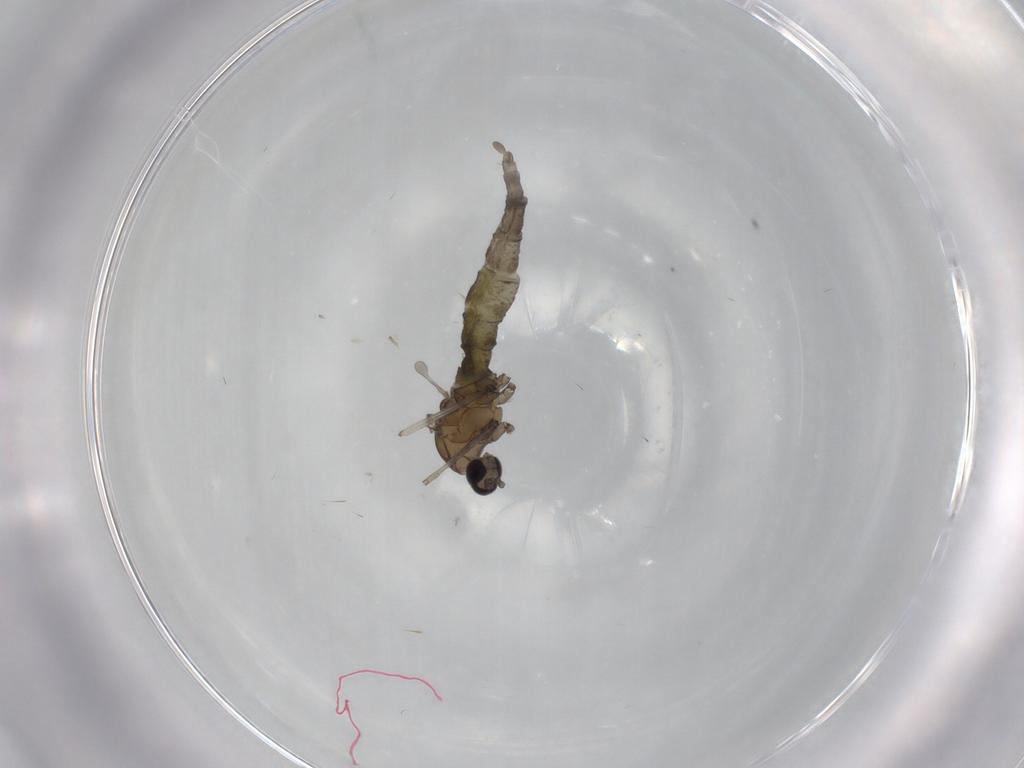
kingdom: Animalia
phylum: Arthropoda
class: Insecta
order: Diptera
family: Cecidomyiidae
